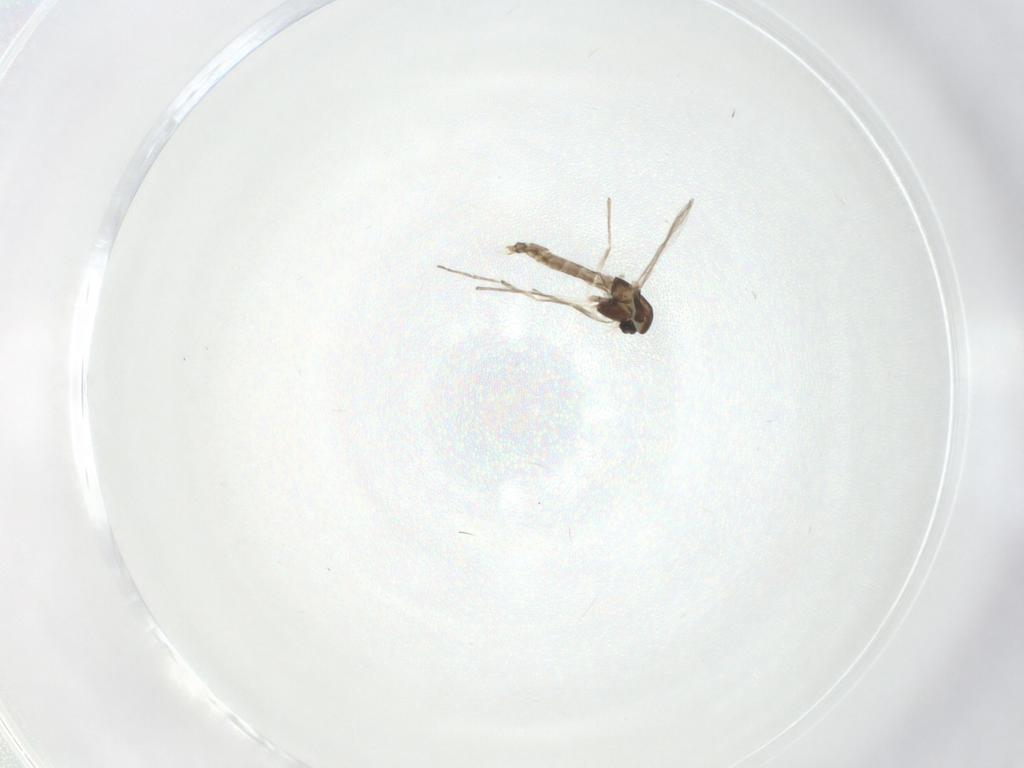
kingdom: Animalia
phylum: Arthropoda
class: Insecta
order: Diptera
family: Chironomidae
